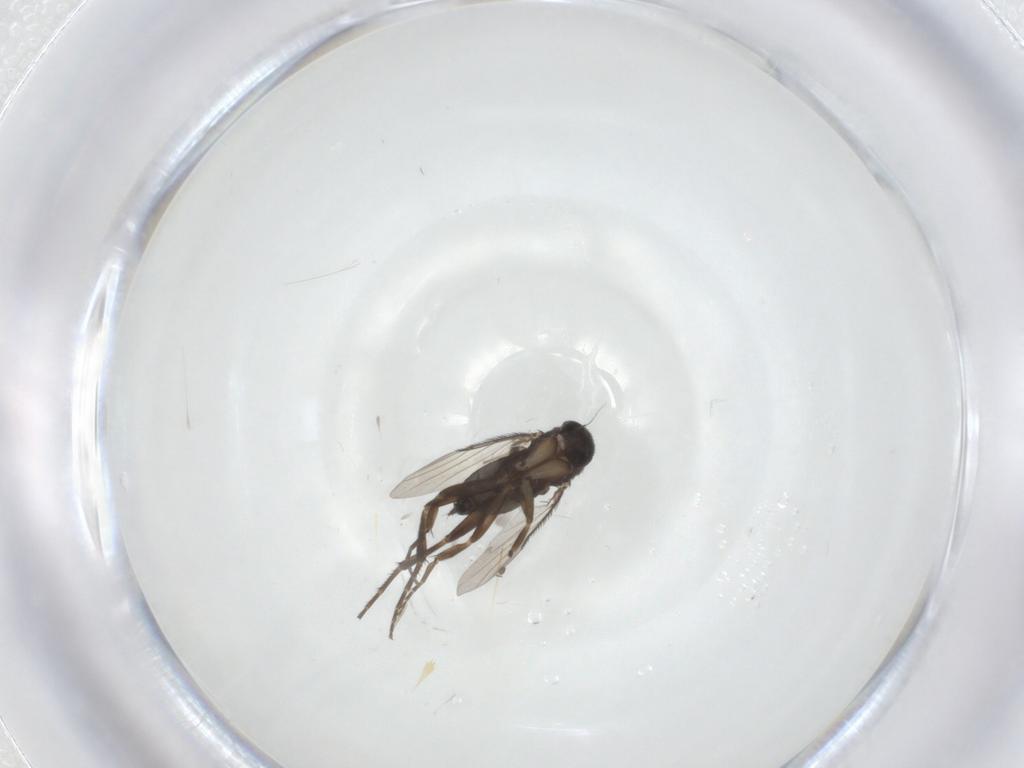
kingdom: Animalia
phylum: Arthropoda
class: Insecta
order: Diptera
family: Phoridae
